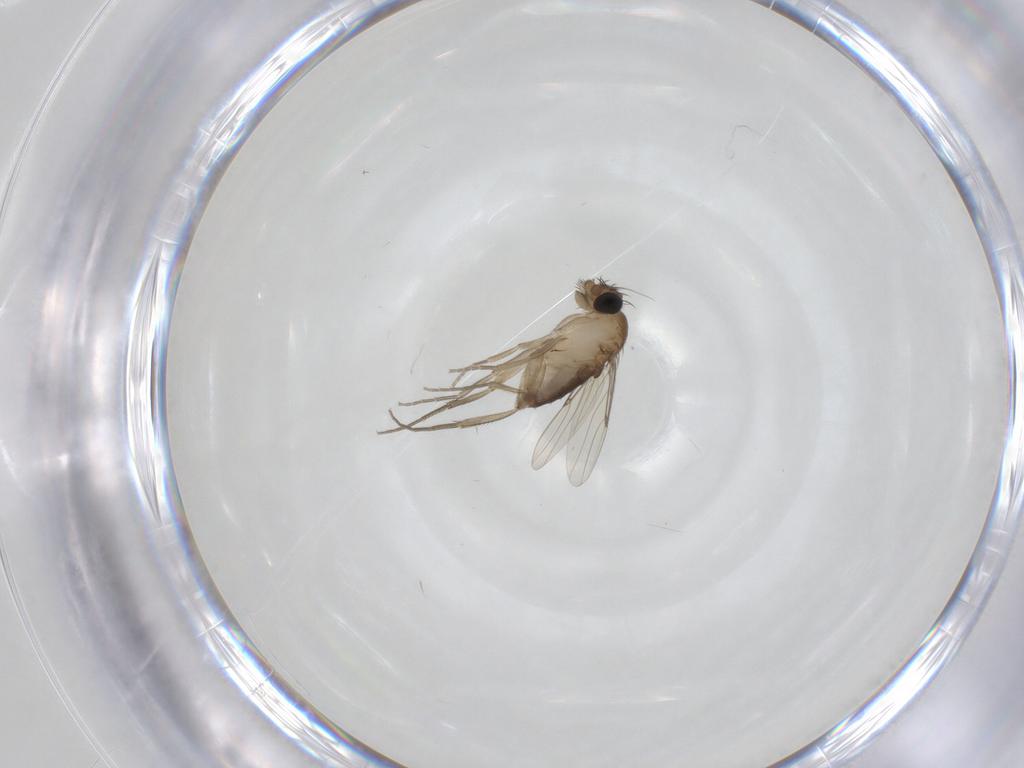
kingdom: Animalia
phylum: Arthropoda
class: Insecta
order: Diptera
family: Phoridae
